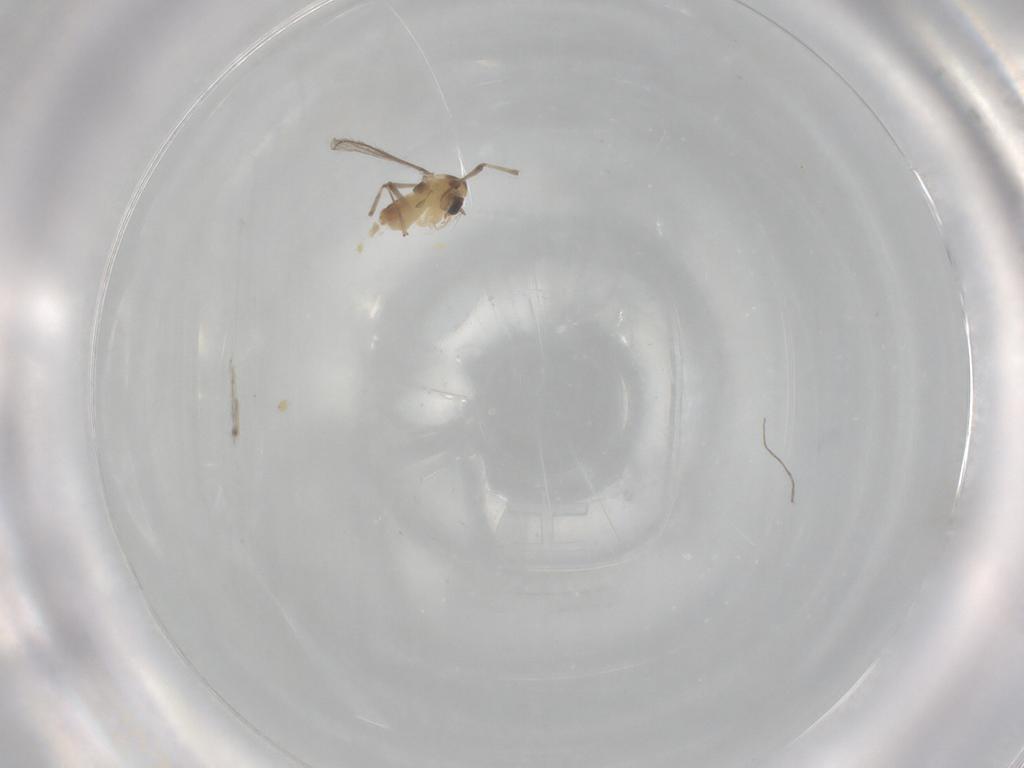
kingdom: Animalia
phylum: Arthropoda
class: Insecta
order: Diptera
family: Chironomidae
